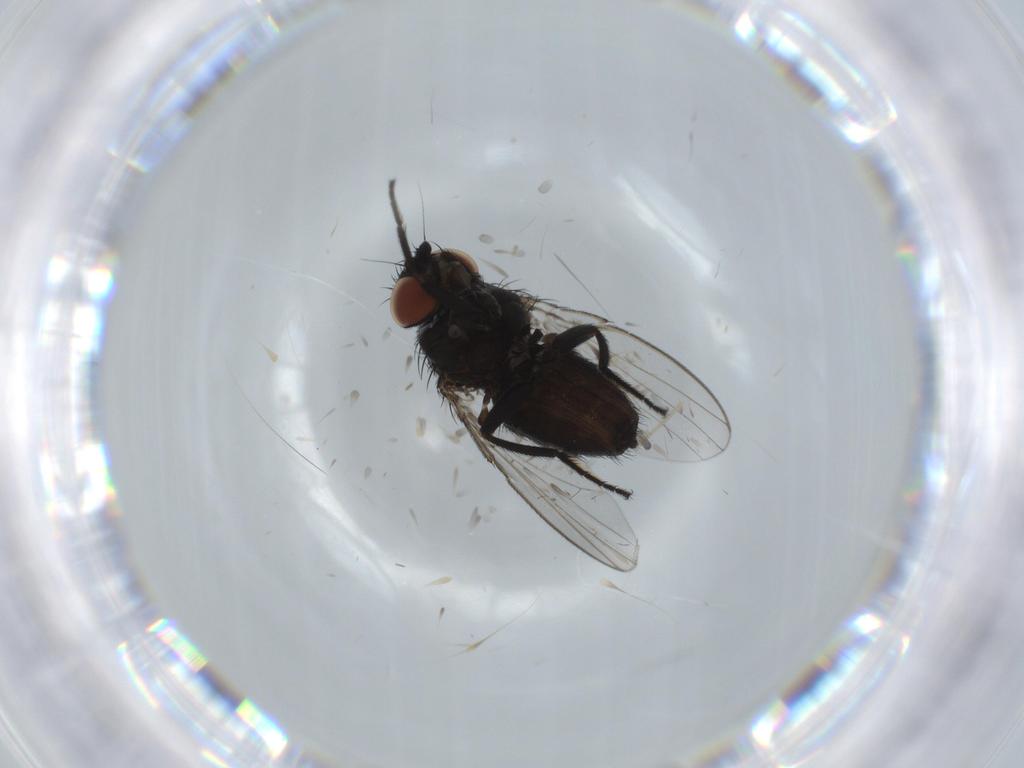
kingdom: Animalia
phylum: Arthropoda
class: Insecta
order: Diptera
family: Milichiidae
